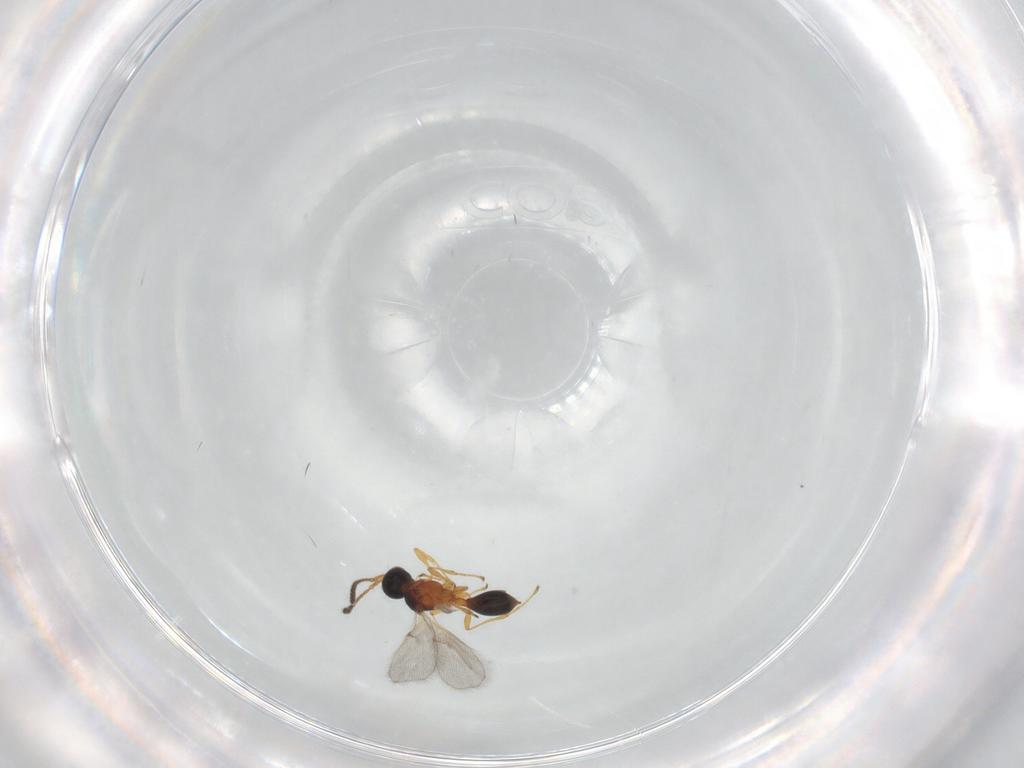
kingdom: Animalia
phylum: Arthropoda
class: Insecta
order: Hymenoptera
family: Diapriidae
